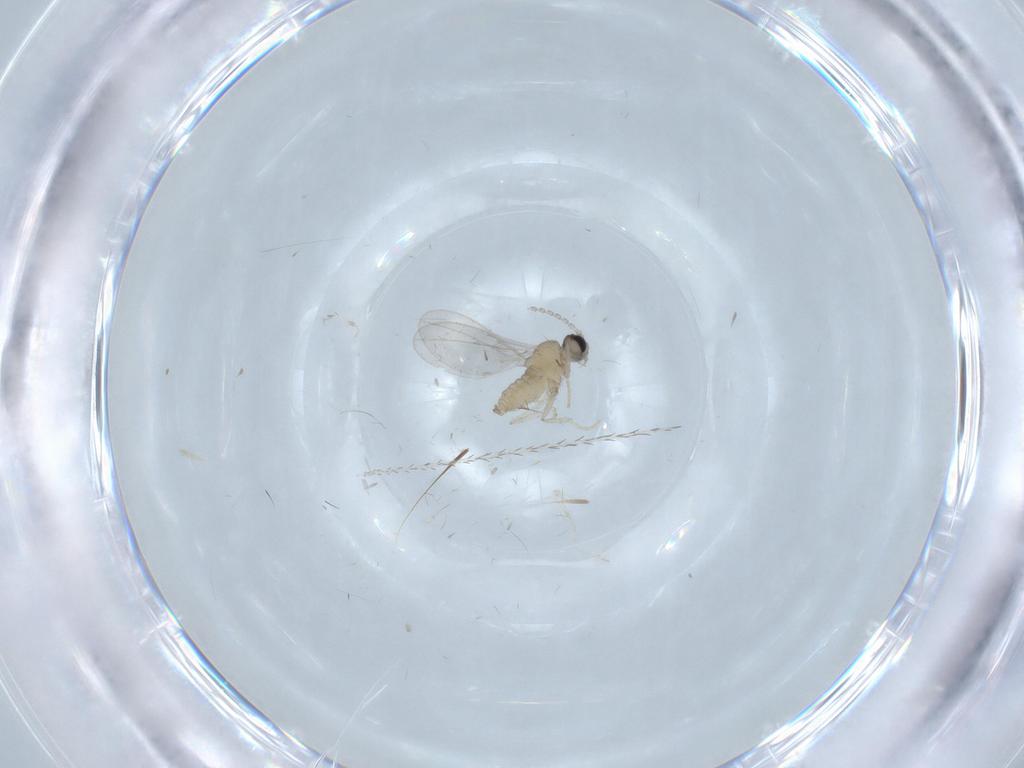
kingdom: Animalia
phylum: Arthropoda
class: Insecta
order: Diptera
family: Cecidomyiidae
